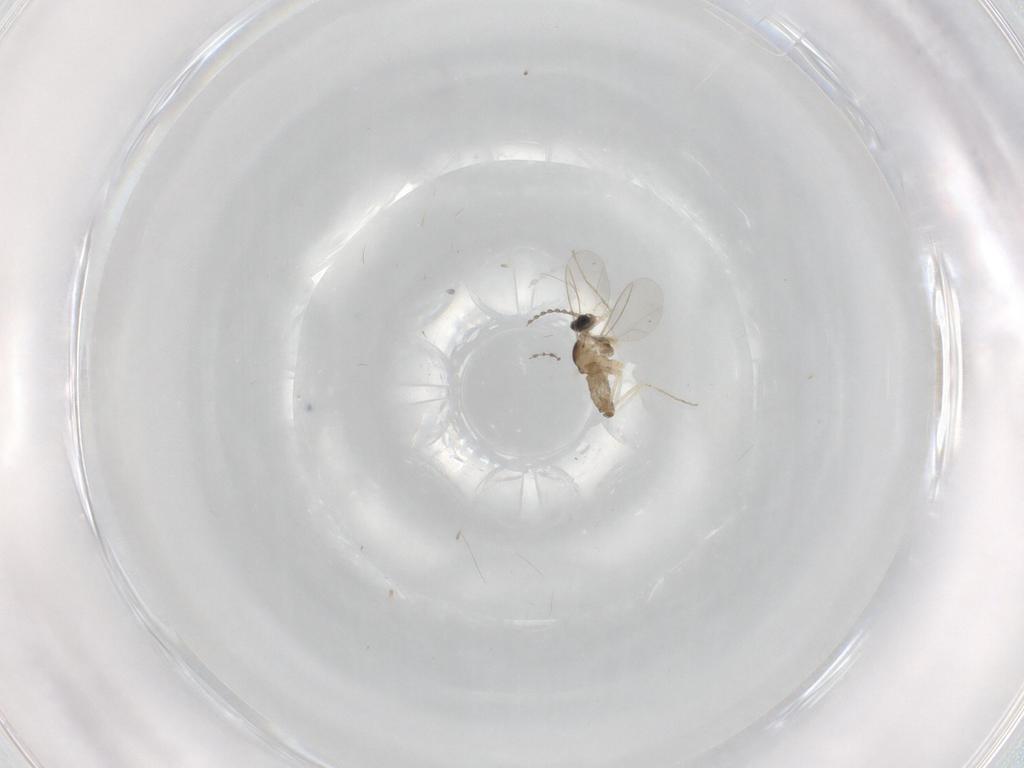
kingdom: Animalia
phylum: Arthropoda
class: Insecta
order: Diptera
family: Cecidomyiidae
